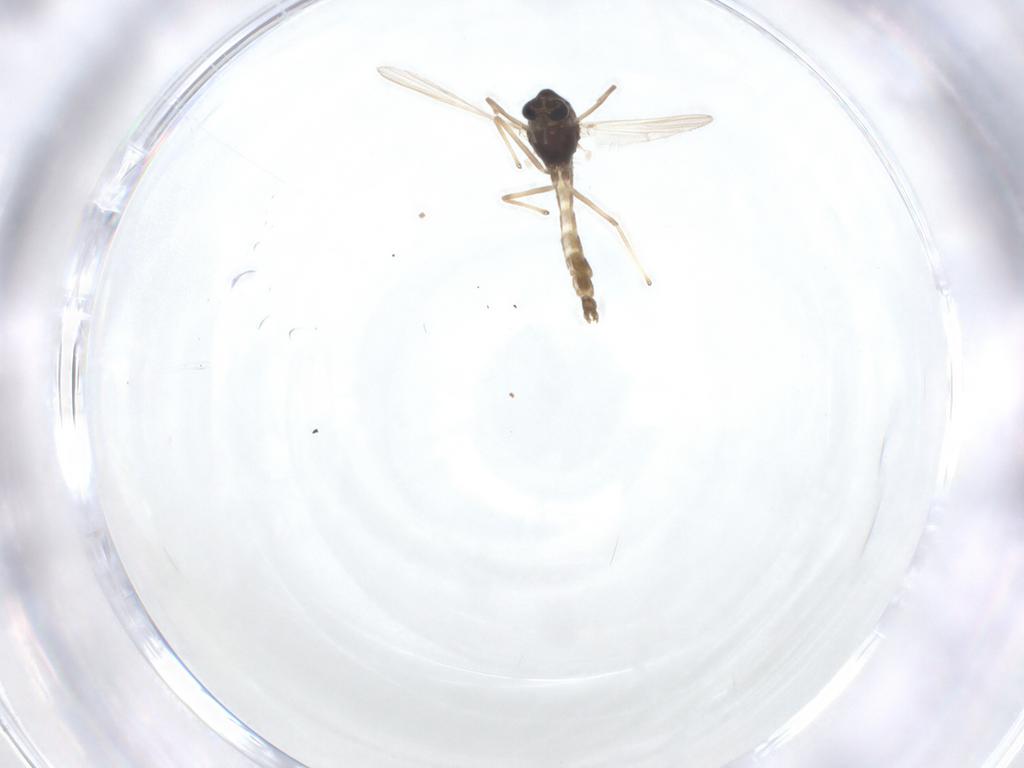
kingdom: Animalia
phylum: Arthropoda
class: Insecta
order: Diptera
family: Chironomidae
